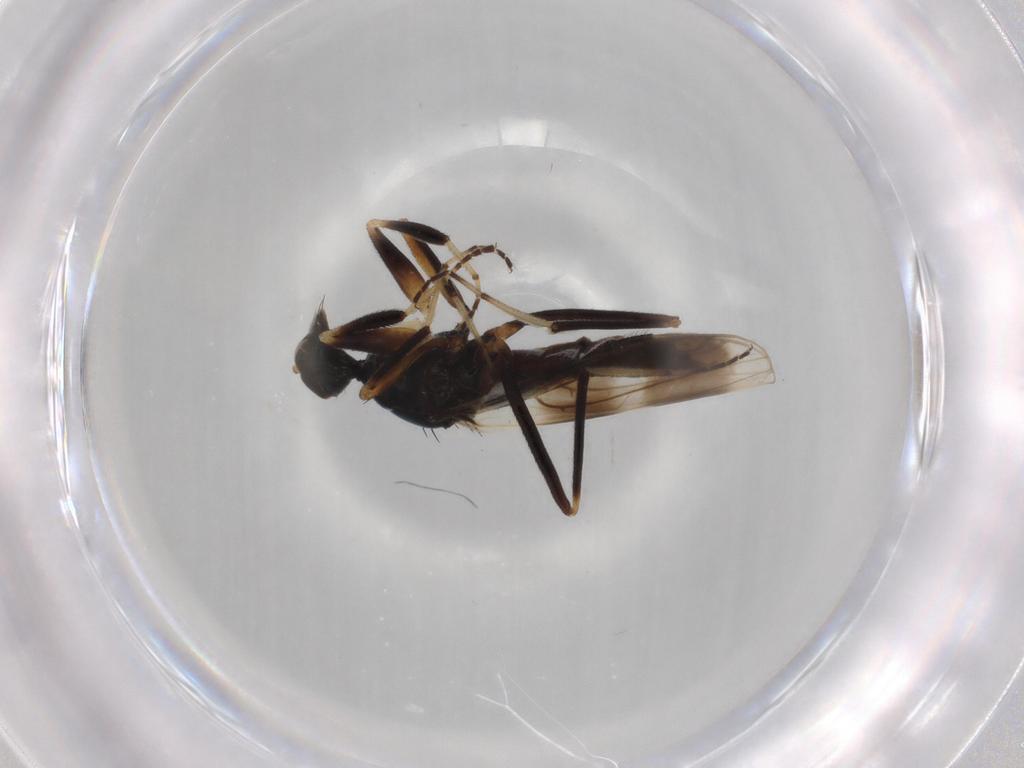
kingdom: Animalia
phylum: Arthropoda
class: Insecta
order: Diptera
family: Hybotidae
